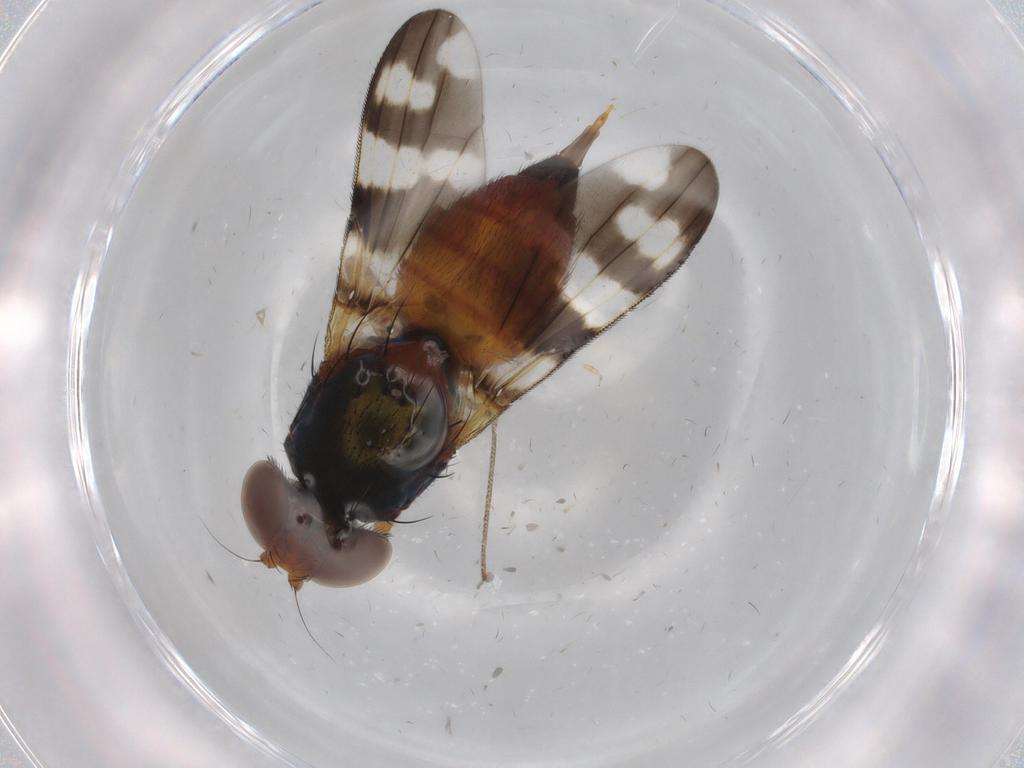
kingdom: Animalia
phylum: Arthropoda
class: Insecta
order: Diptera
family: Ulidiidae
